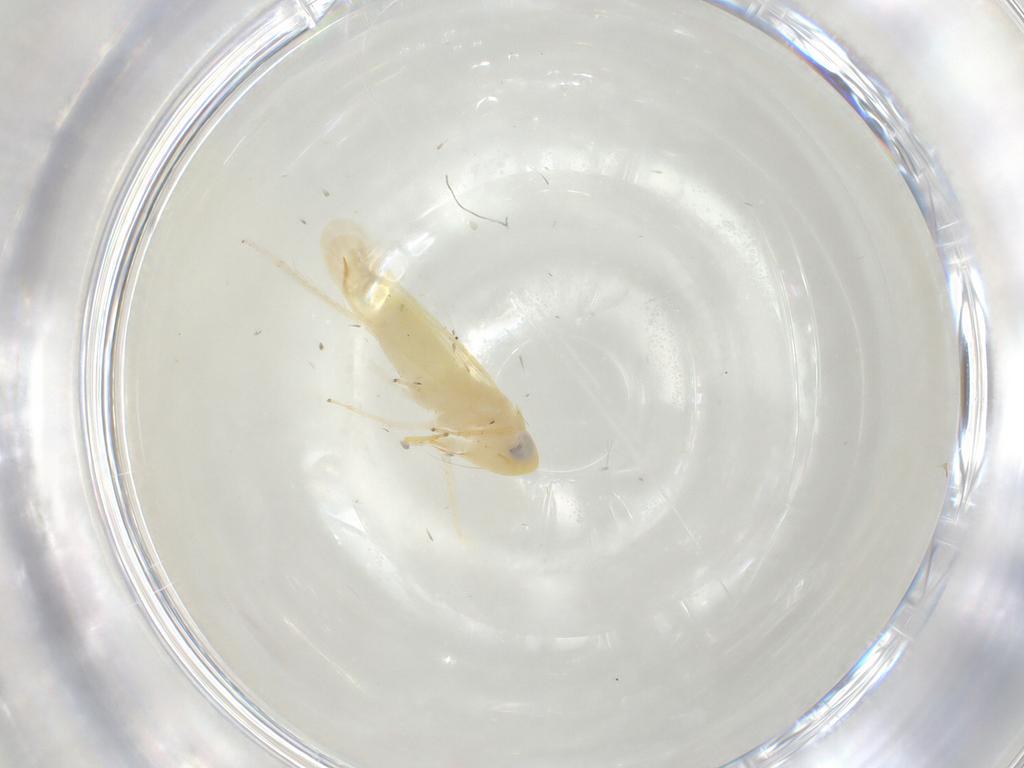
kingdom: Animalia
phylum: Arthropoda
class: Insecta
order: Hemiptera
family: Cicadellidae
